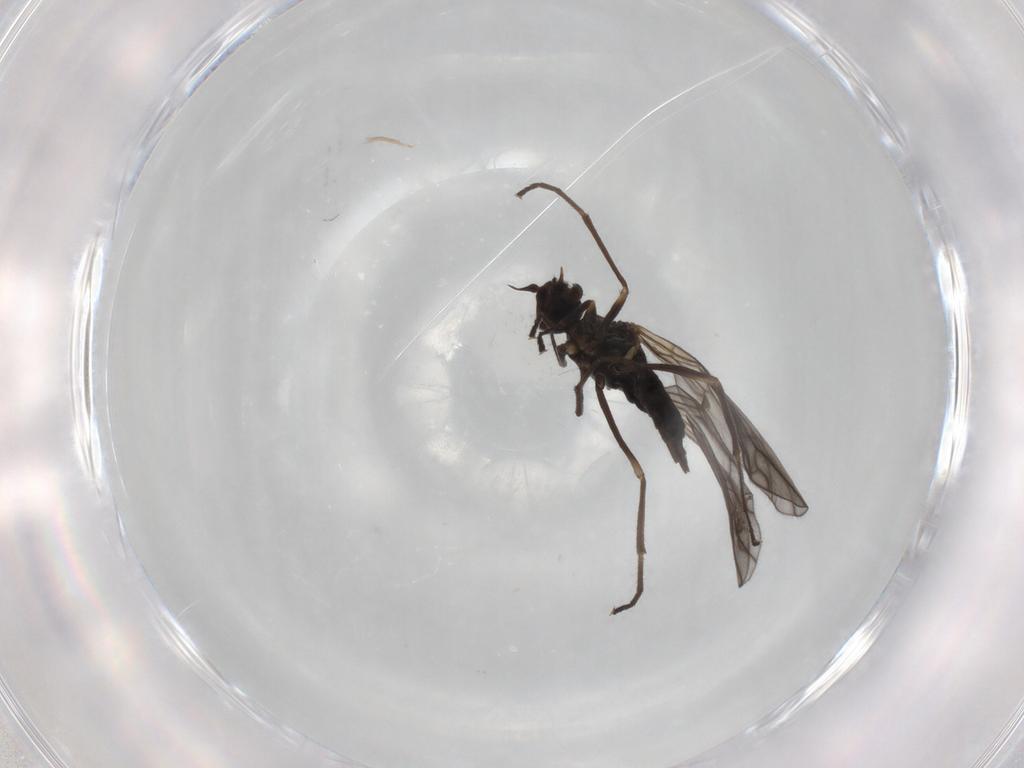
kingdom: Animalia
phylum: Arthropoda
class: Insecta
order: Diptera
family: Empididae
